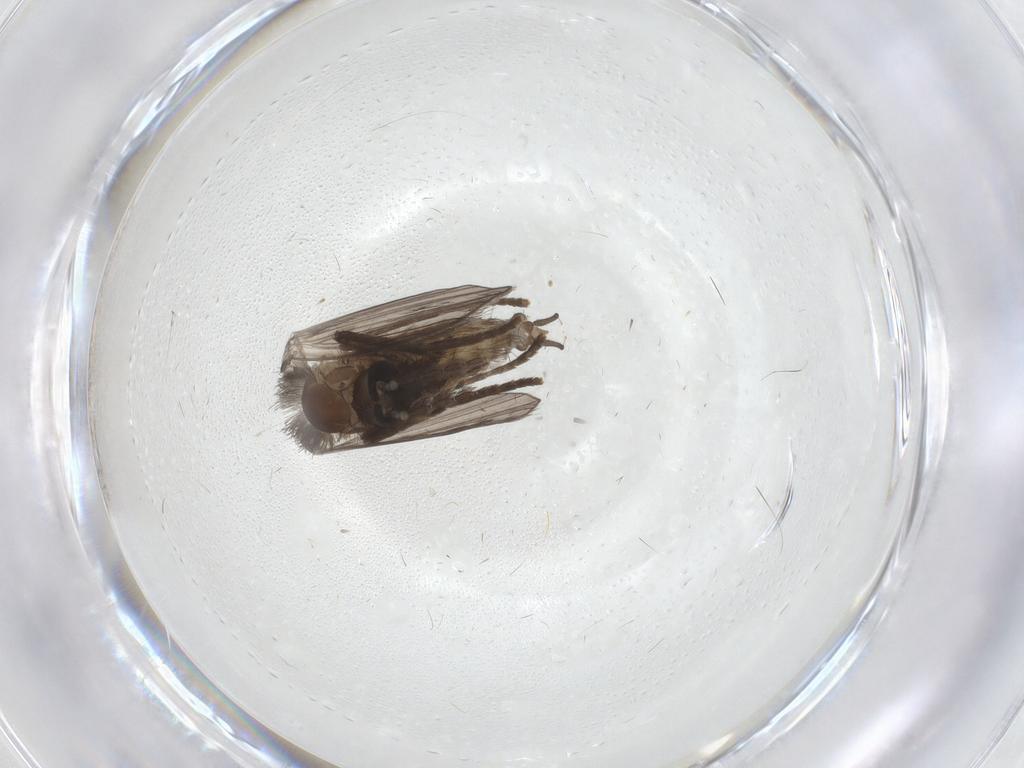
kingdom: Animalia
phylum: Arthropoda
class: Insecta
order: Diptera
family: Psychodidae
